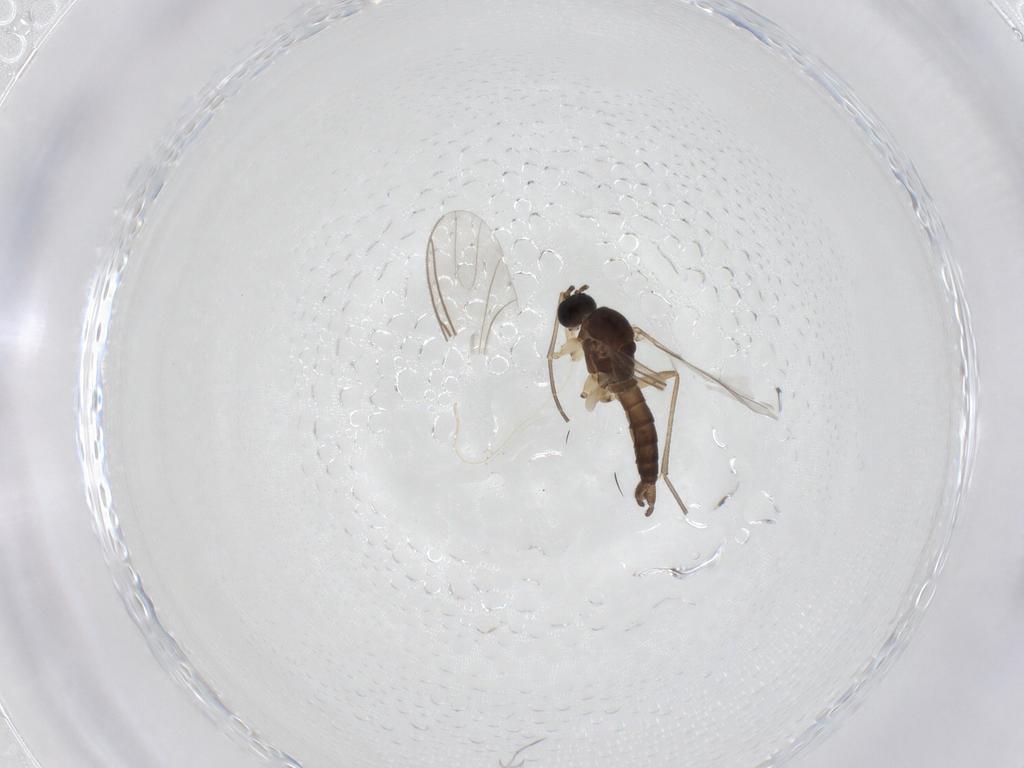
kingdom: Animalia
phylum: Arthropoda
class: Insecta
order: Diptera
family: Sciaridae
